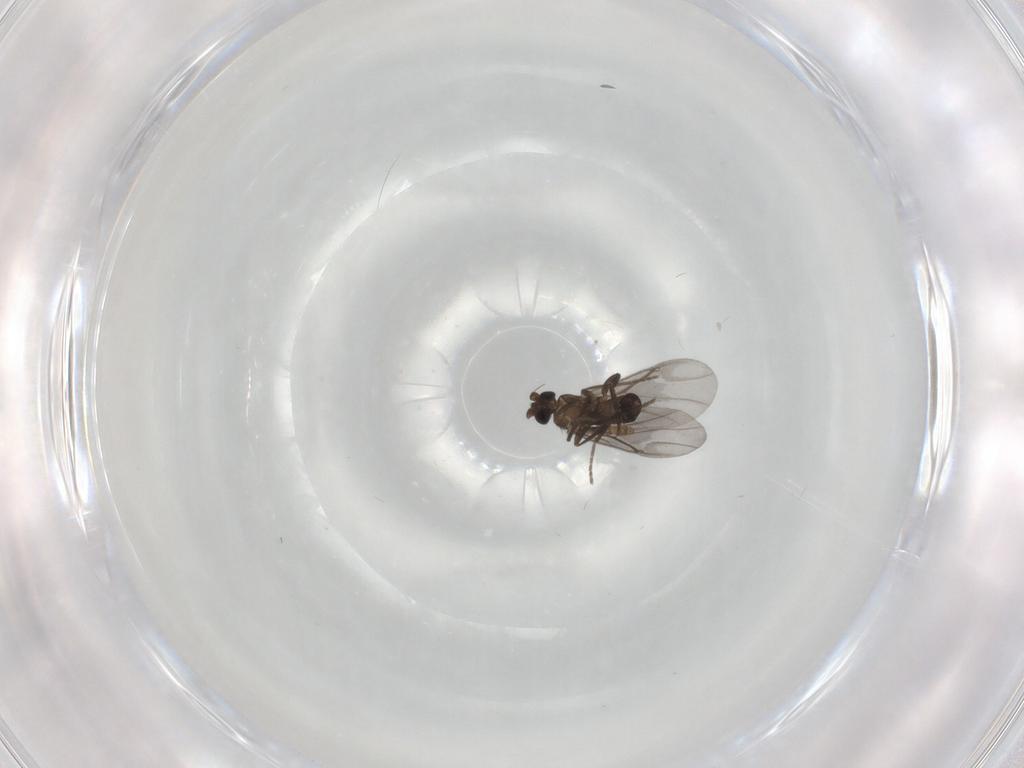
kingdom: Animalia
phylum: Arthropoda
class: Insecta
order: Diptera
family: Phoridae
